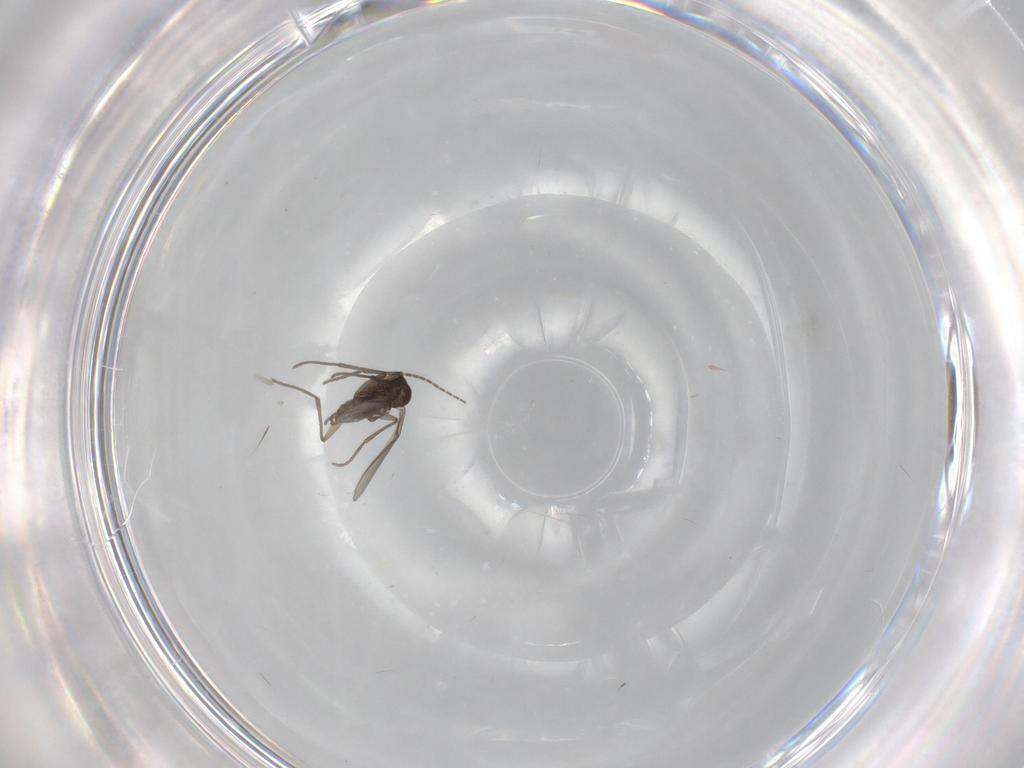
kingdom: Animalia
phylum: Arthropoda
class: Insecta
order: Diptera
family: Sciaridae
